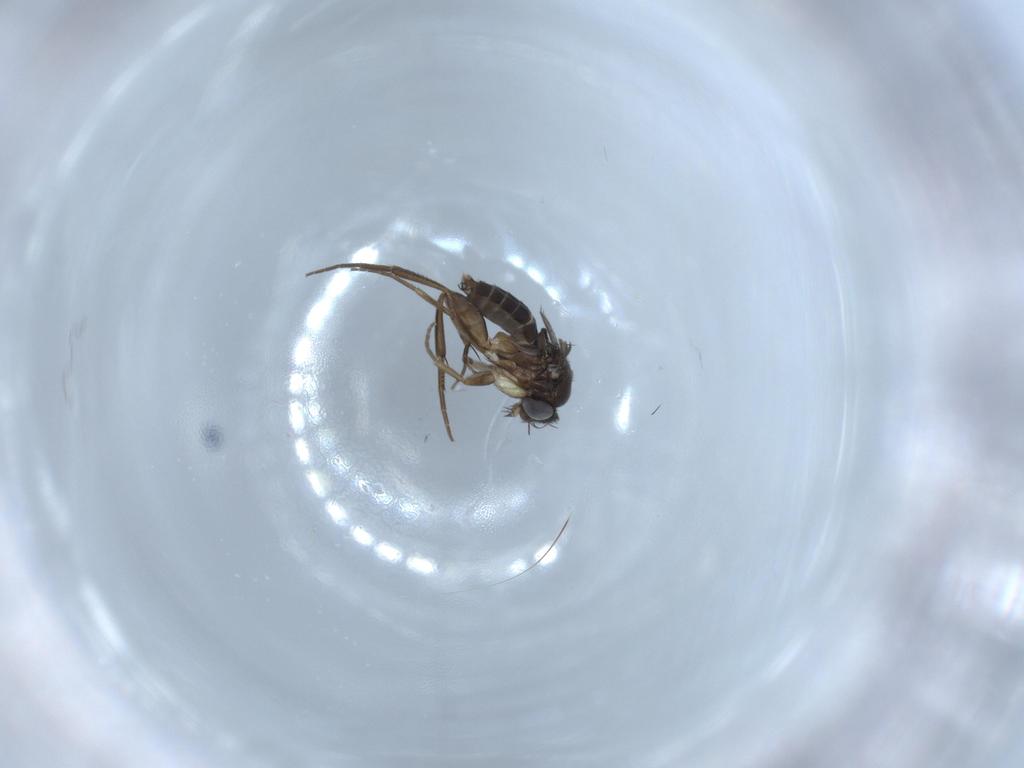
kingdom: Animalia
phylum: Arthropoda
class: Insecta
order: Diptera
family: Phoridae
